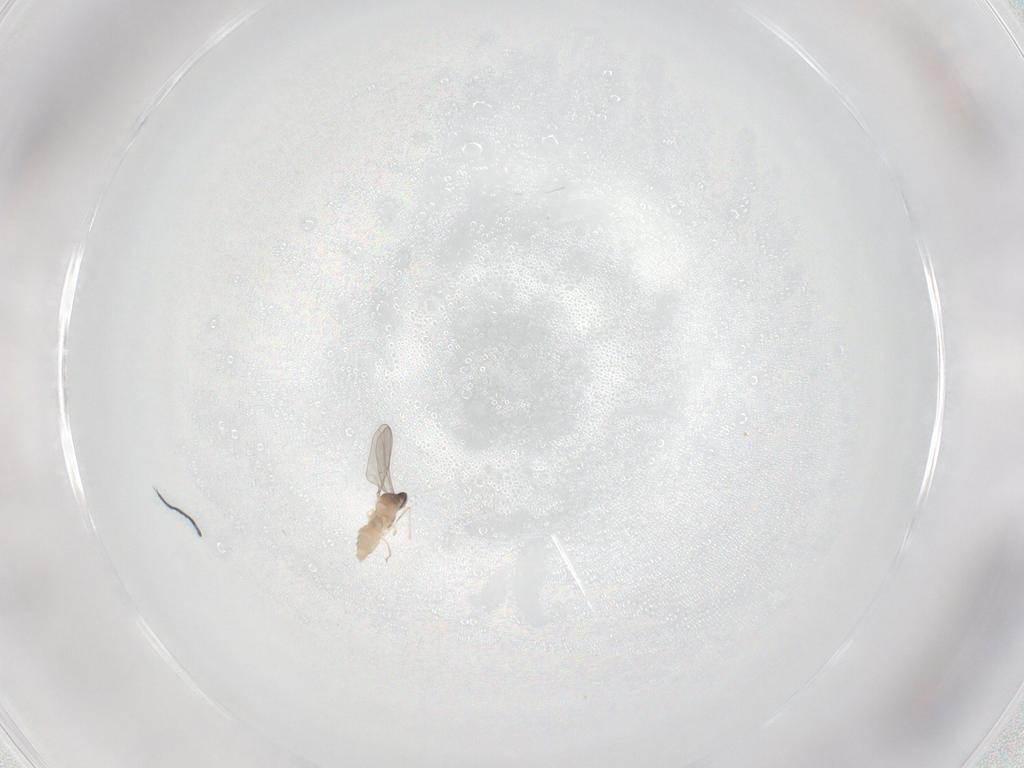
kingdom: Animalia
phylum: Arthropoda
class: Insecta
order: Diptera
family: Cecidomyiidae
